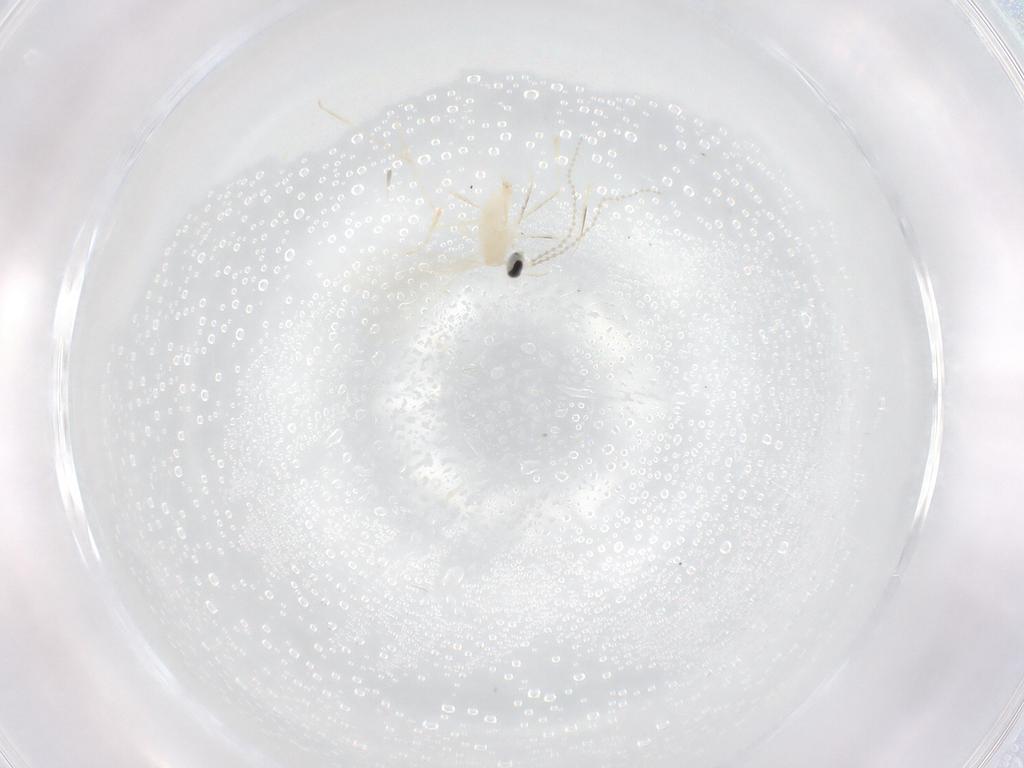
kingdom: Animalia
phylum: Arthropoda
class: Insecta
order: Diptera
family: Cecidomyiidae
